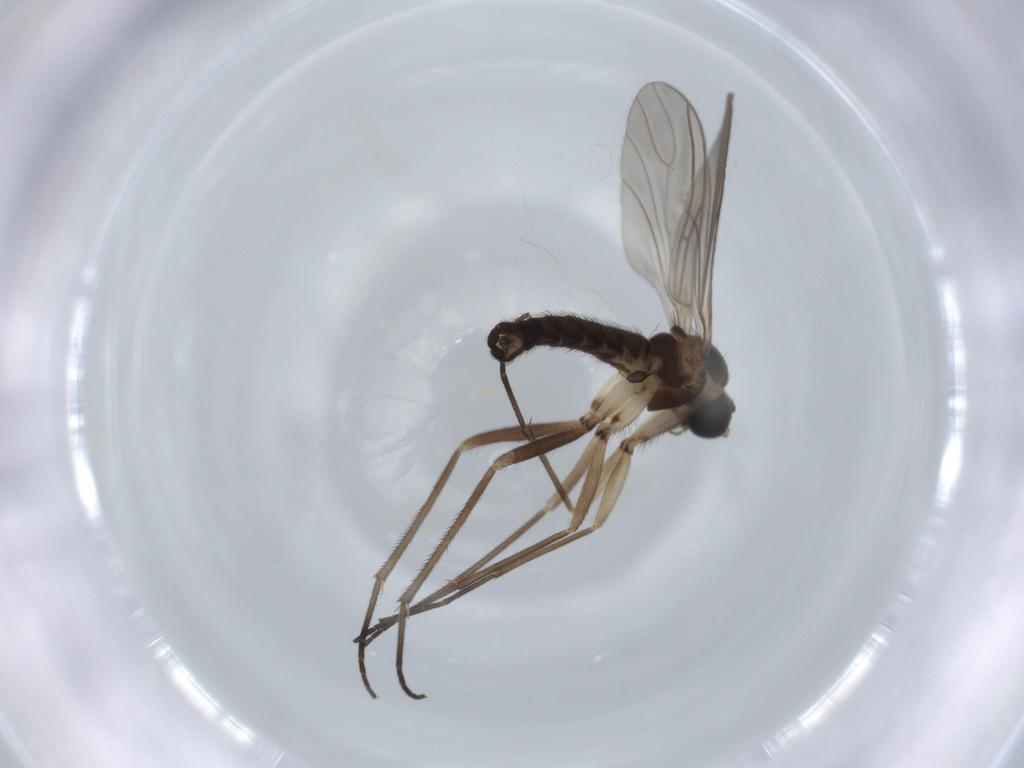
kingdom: Animalia
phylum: Arthropoda
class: Insecta
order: Diptera
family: Sciaridae
